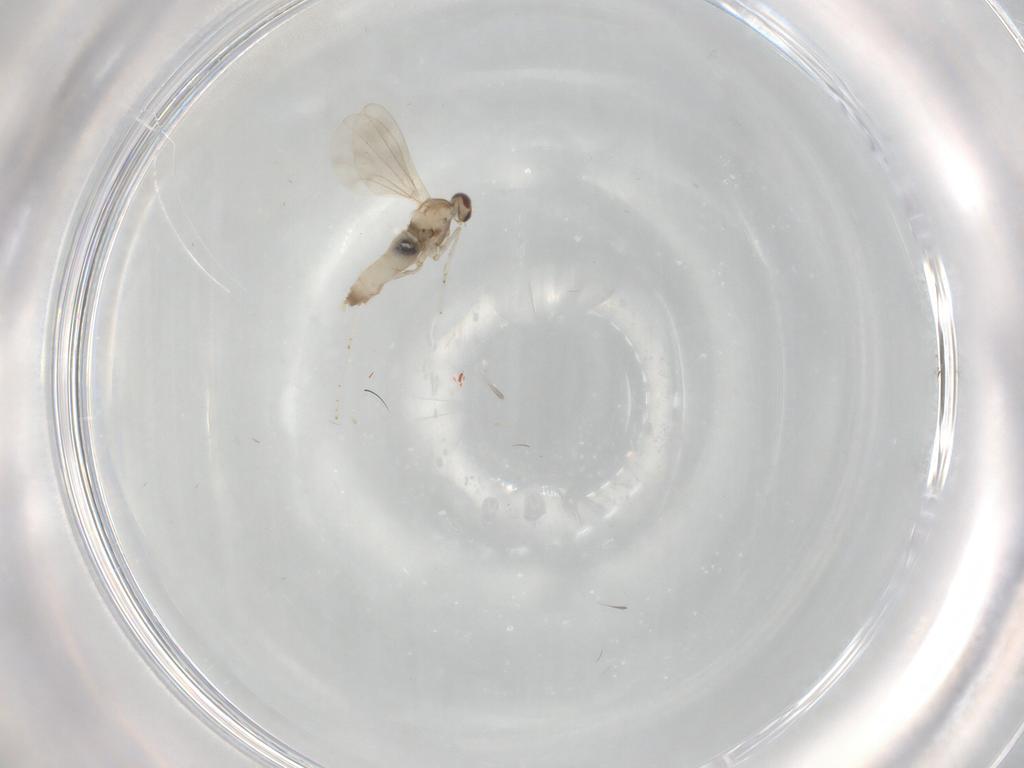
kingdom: Animalia
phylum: Arthropoda
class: Insecta
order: Diptera
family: Cecidomyiidae
